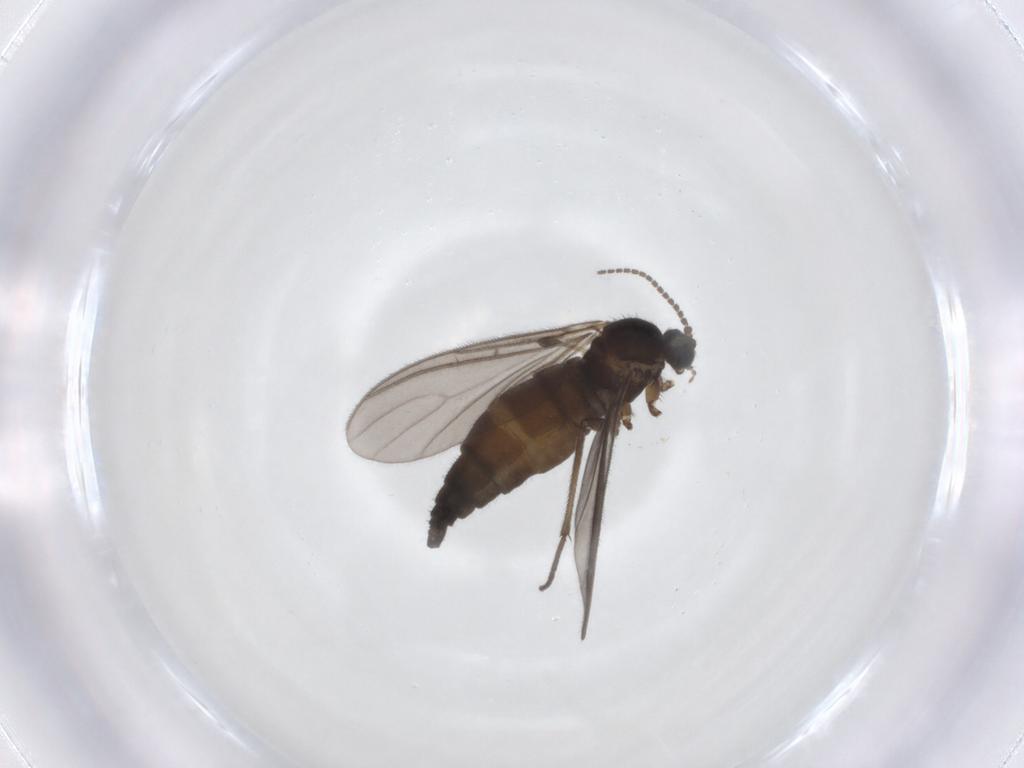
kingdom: Animalia
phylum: Arthropoda
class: Insecta
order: Diptera
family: Sciaridae
